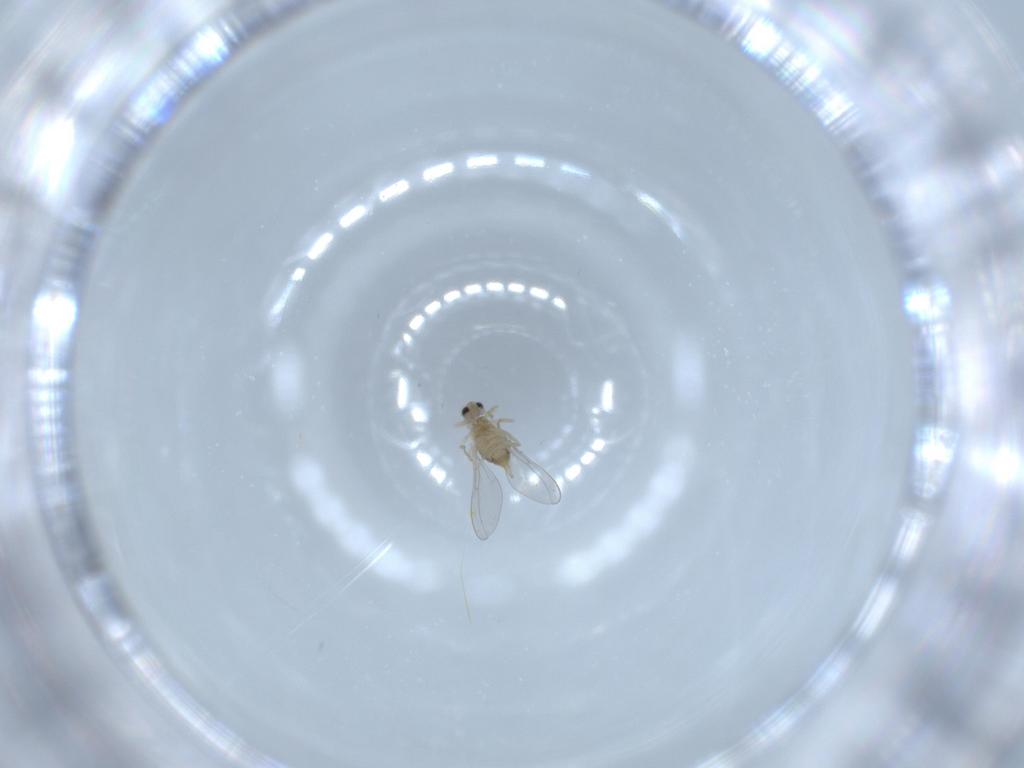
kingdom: Animalia
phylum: Arthropoda
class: Insecta
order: Diptera
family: Cecidomyiidae
